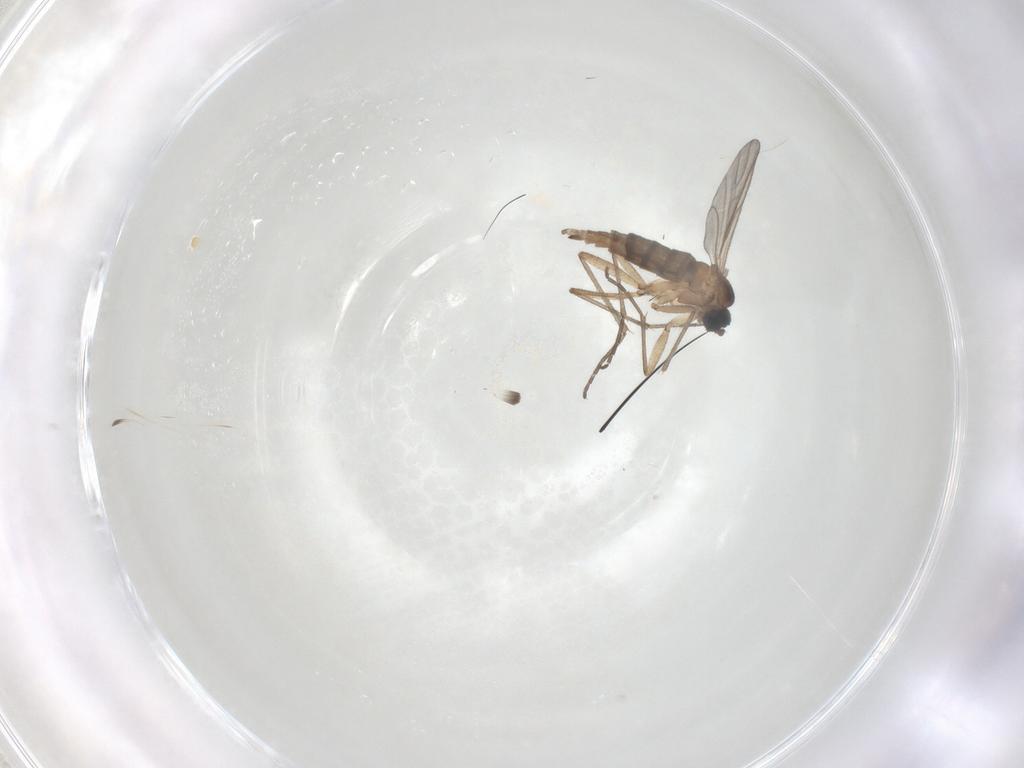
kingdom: Animalia
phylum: Arthropoda
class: Insecta
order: Diptera
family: Sciaridae
